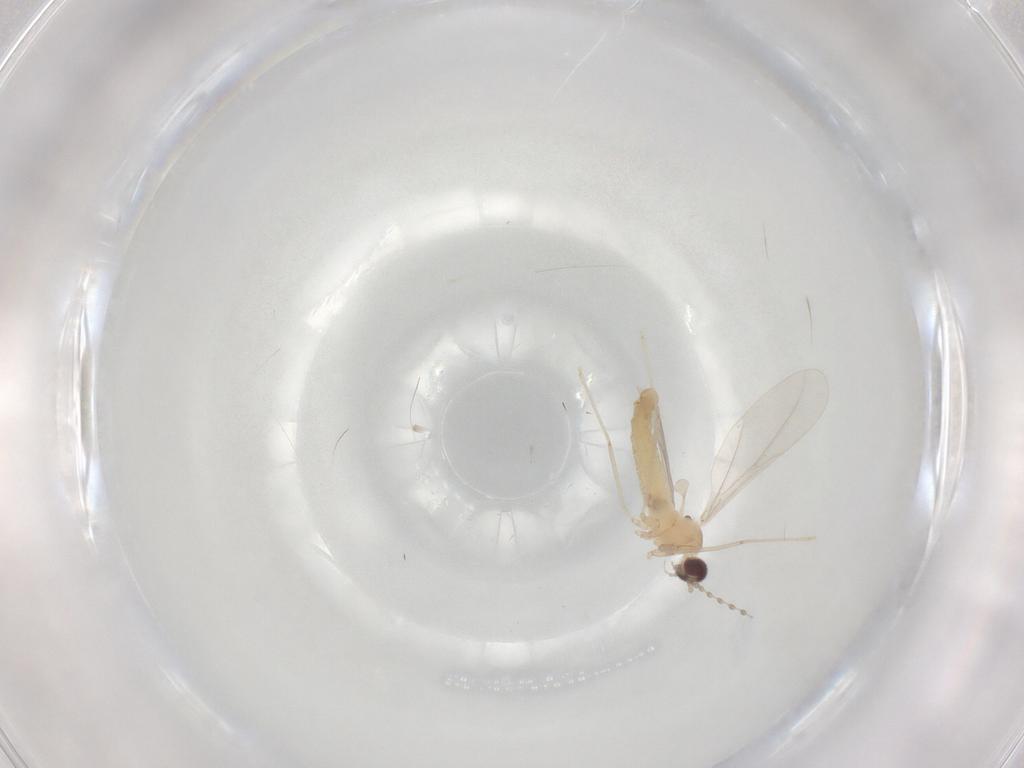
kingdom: Animalia
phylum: Arthropoda
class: Insecta
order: Diptera
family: Cecidomyiidae
